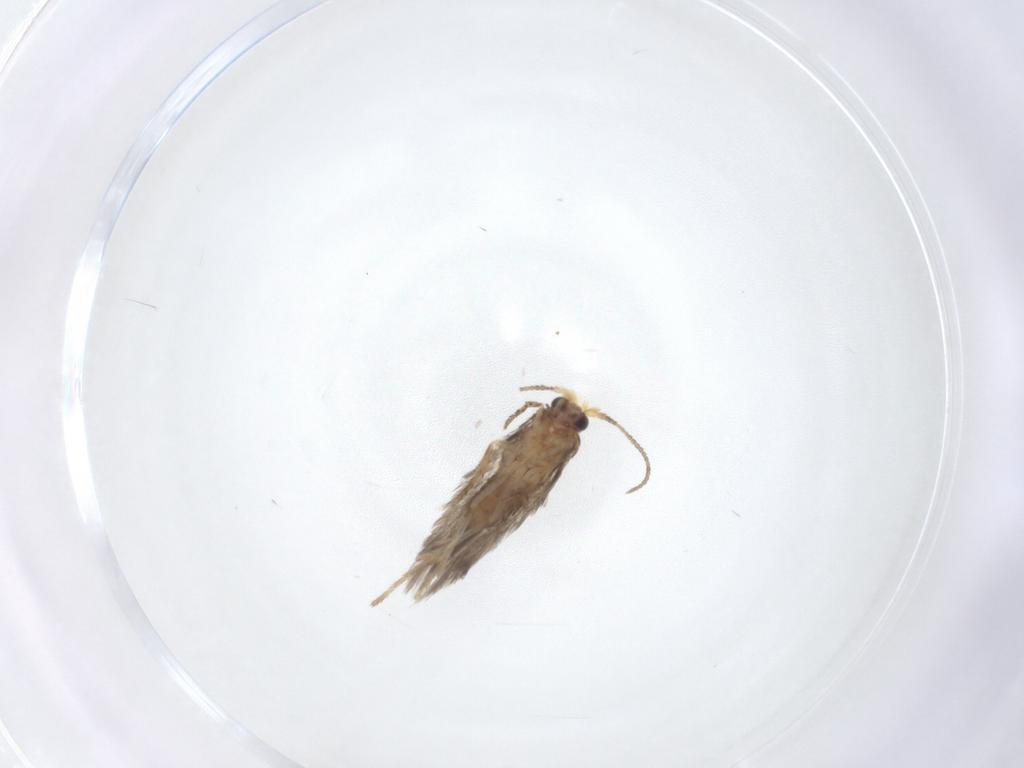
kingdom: Animalia
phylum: Arthropoda
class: Insecta
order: Lepidoptera
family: Nepticulidae
